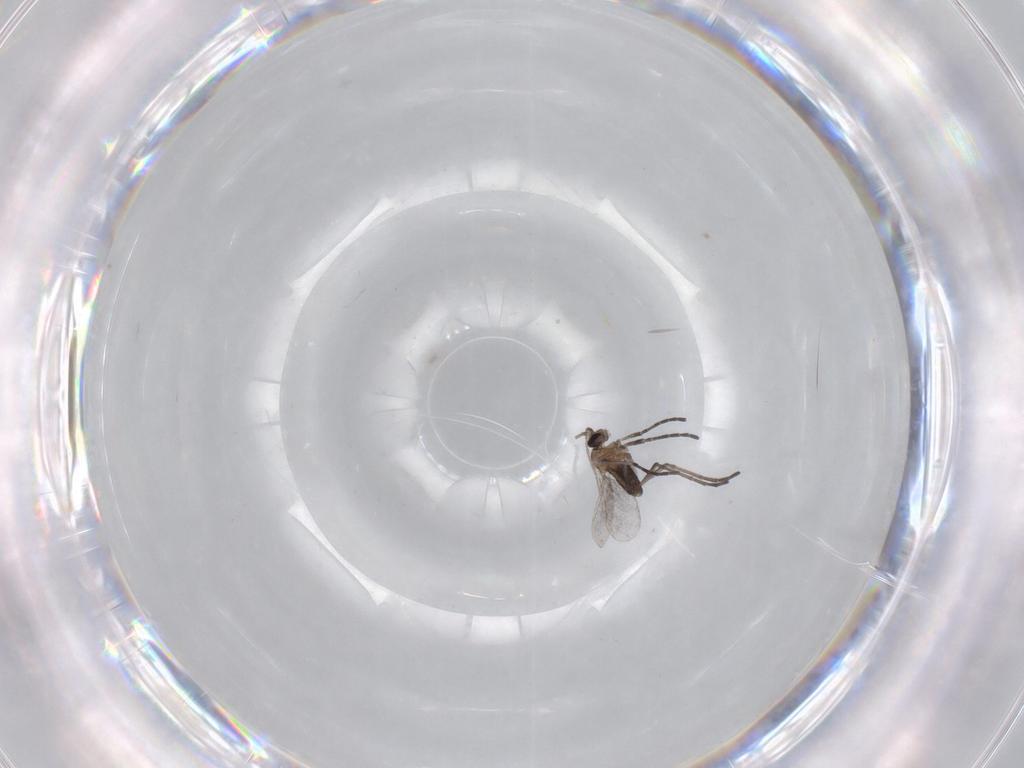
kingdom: Animalia
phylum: Arthropoda
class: Insecta
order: Diptera
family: Cecidomyiidae
